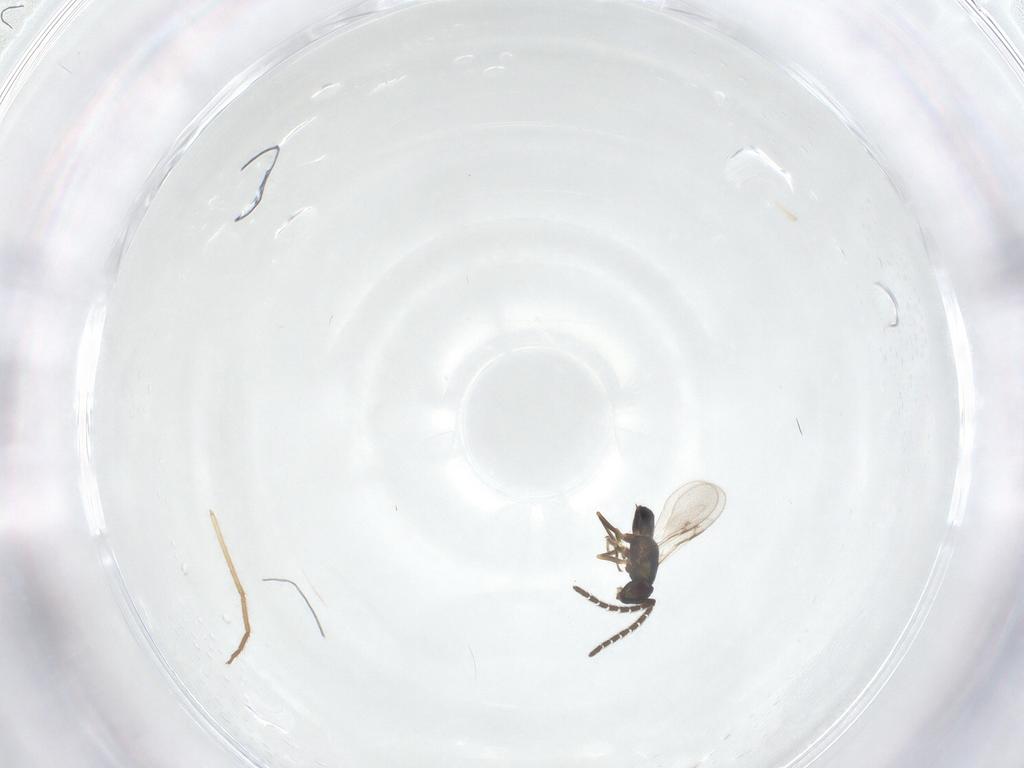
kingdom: Animalia
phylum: Arthropoda
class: Insecta
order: Hymenoptera
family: Encyrtidae
